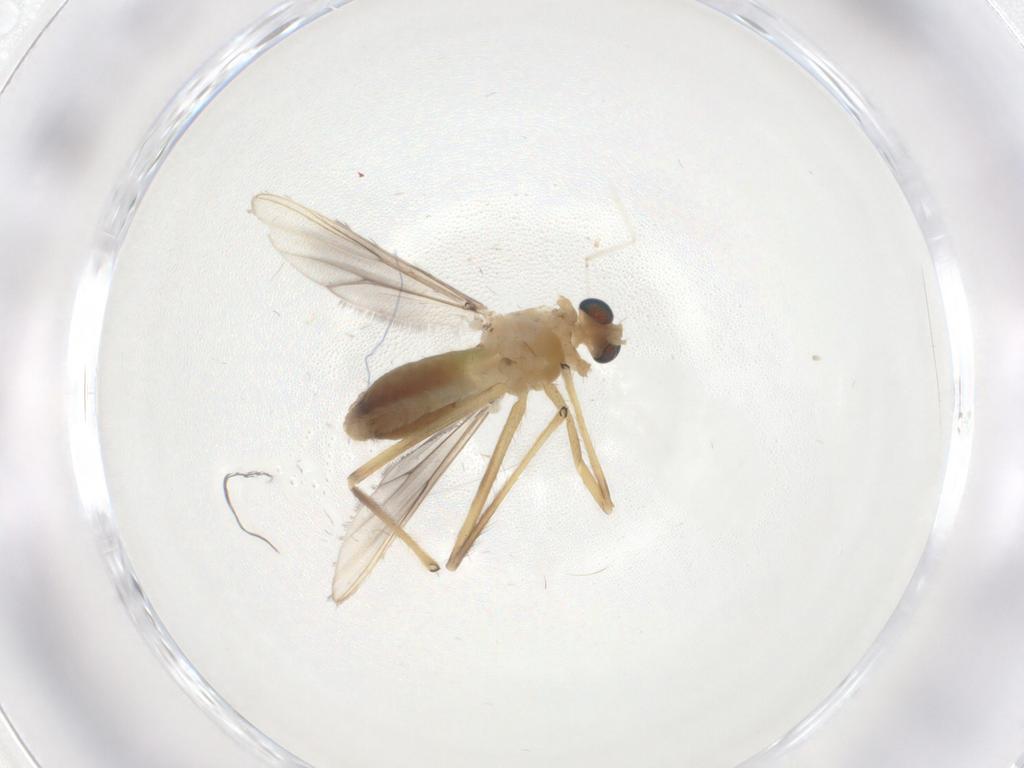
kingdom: Animalia
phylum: Arthropoda
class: Insecta
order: Diptera
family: Chironomidae
